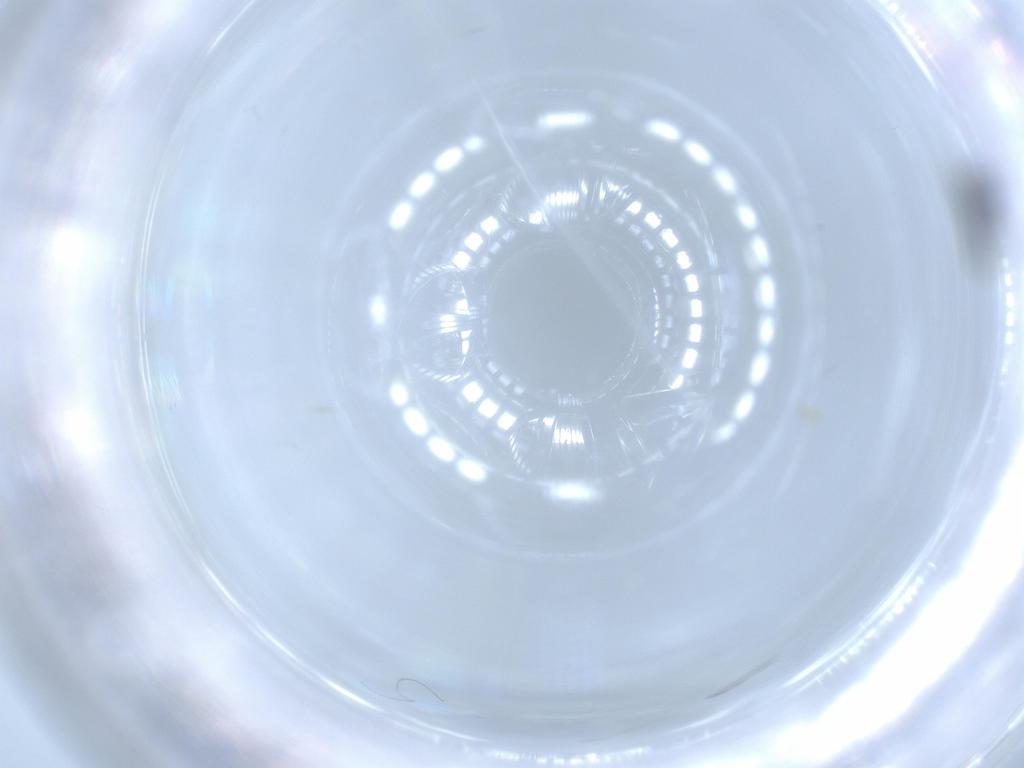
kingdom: Animalia
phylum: Arthropoda
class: Insecta
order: Diptera
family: Chironomidae
